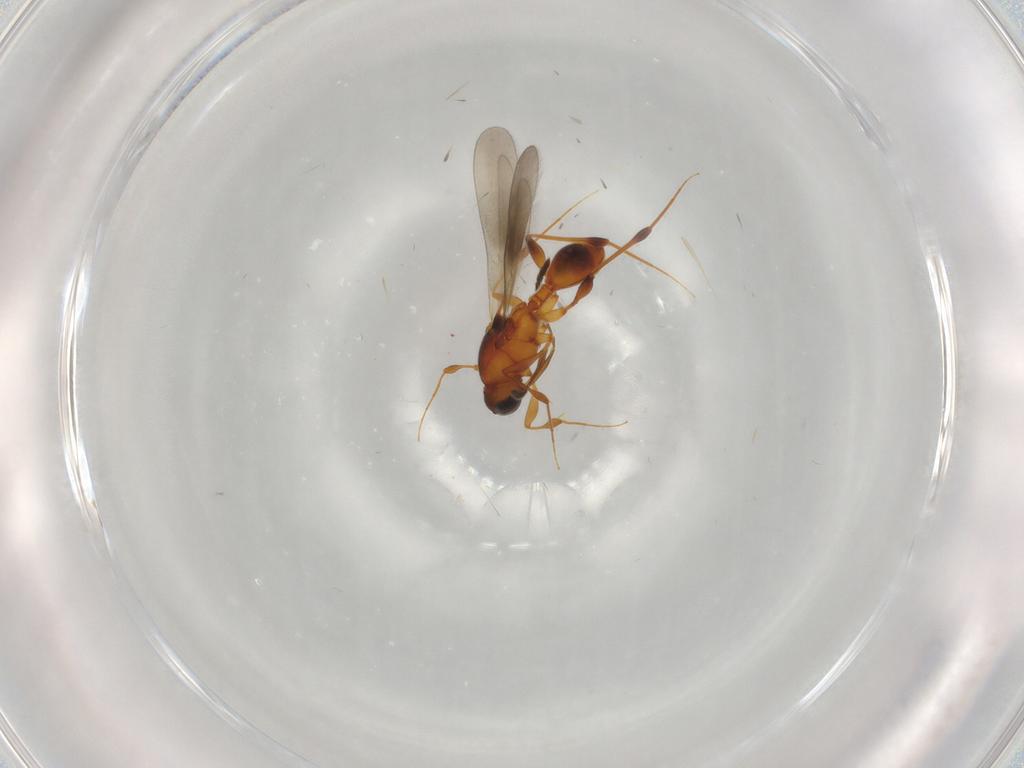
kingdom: Animalia
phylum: Arthropoda
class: Insecta
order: Hymenoptera
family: Platygastridae
